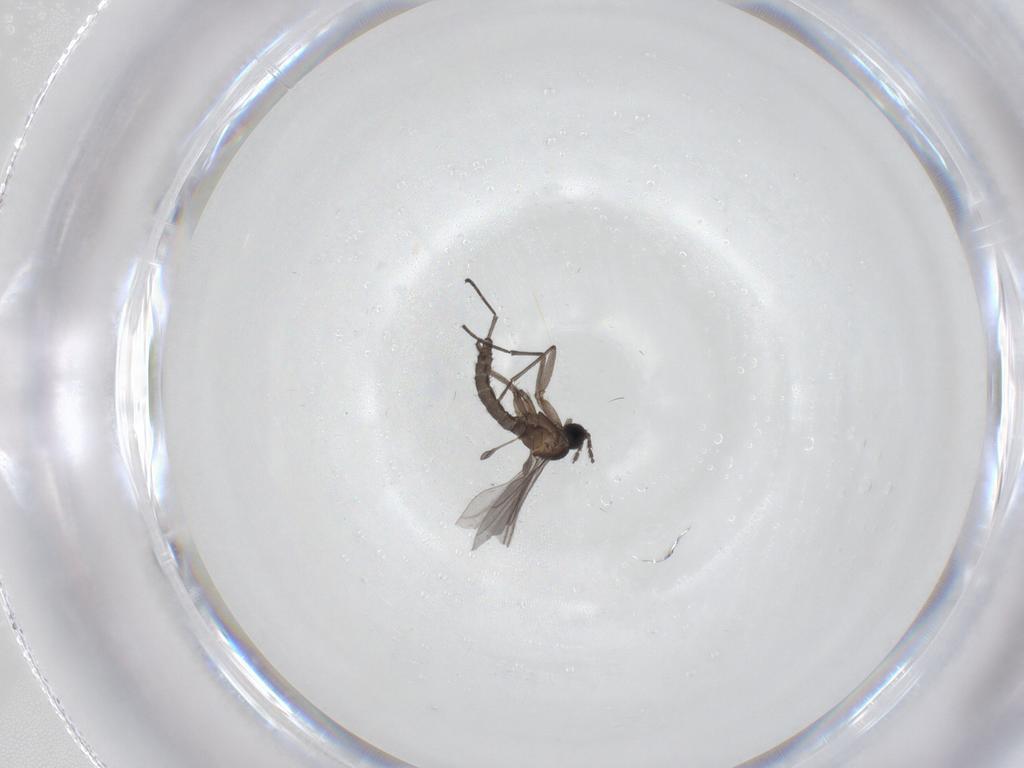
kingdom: Animalia
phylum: Arthropoda
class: Insecta
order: Diptera
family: Sciaridae
